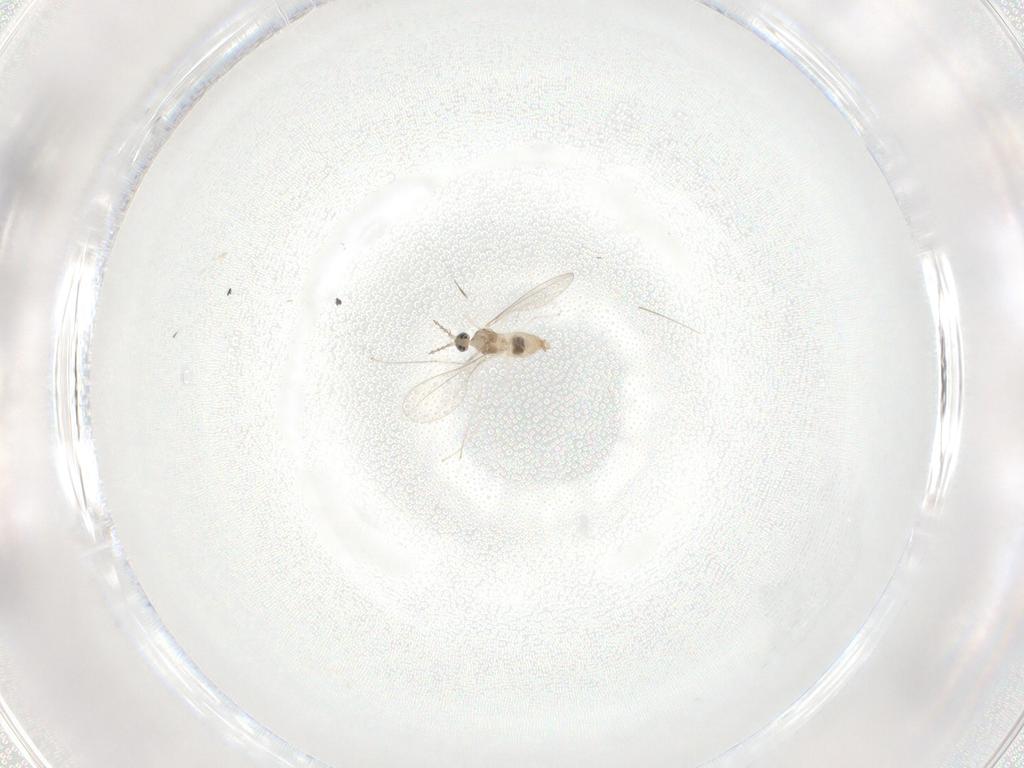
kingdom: Animalia
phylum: Arthropoda
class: Insecta
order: Diptera
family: Cecidomyiidae
